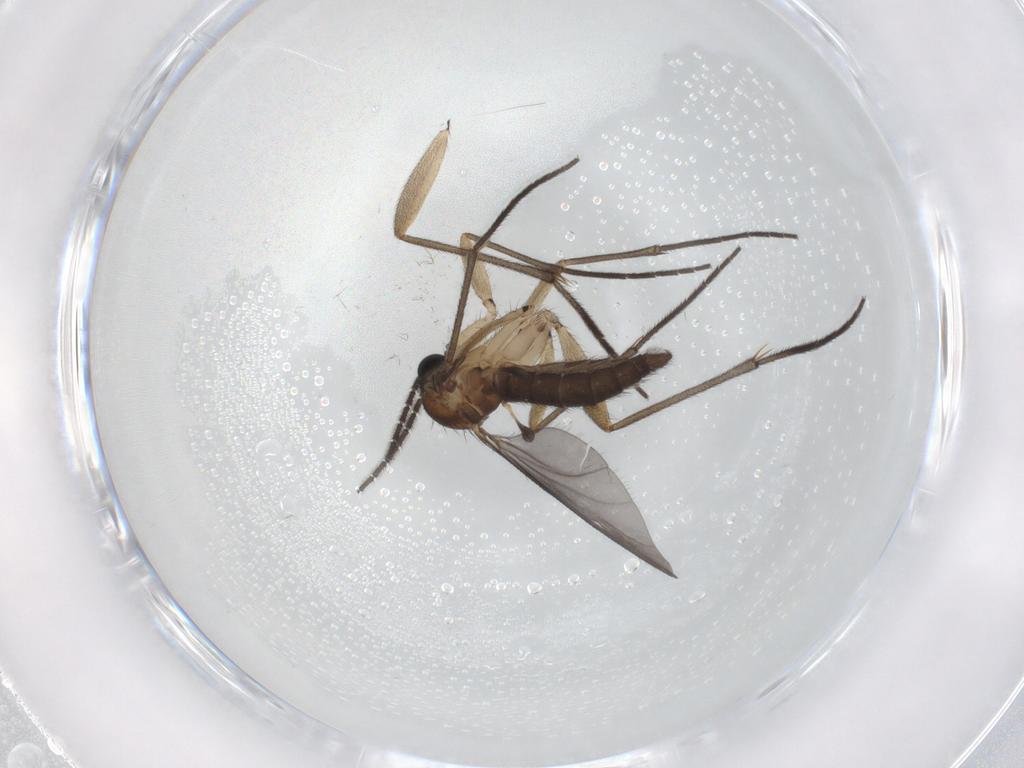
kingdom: Animalia
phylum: Arthropoda
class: Insecta
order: Diptera
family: Sciaridae
